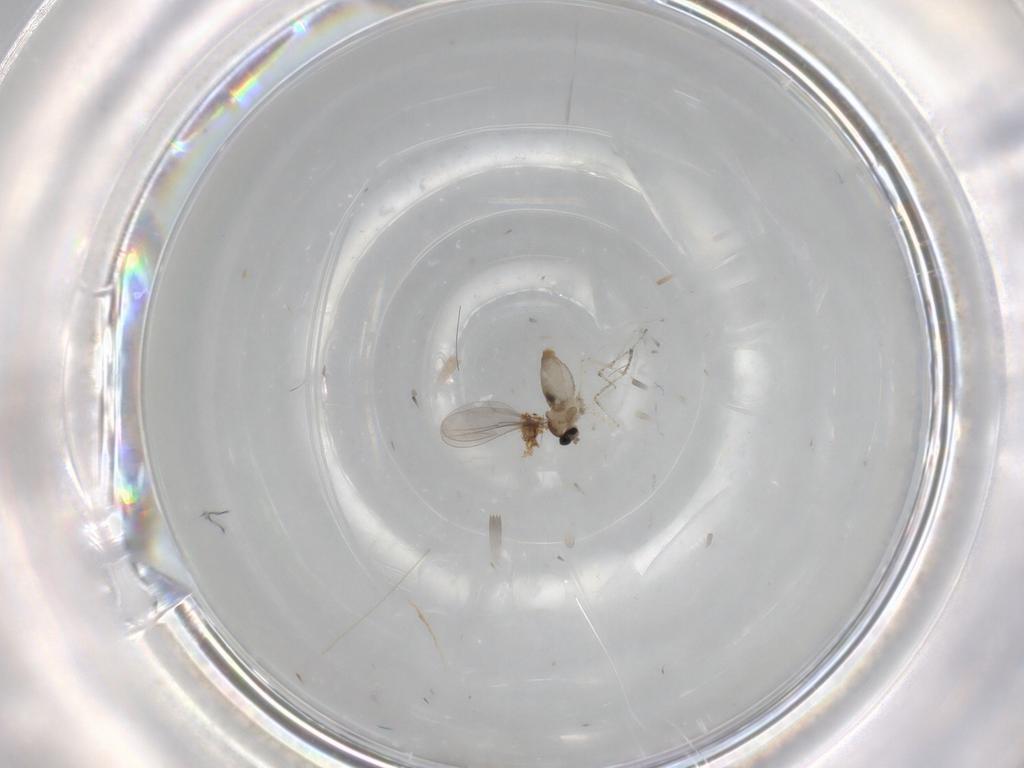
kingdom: Animalia
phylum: Arthropoda
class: Insecta
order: Diptera
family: Cecidomyiidae
